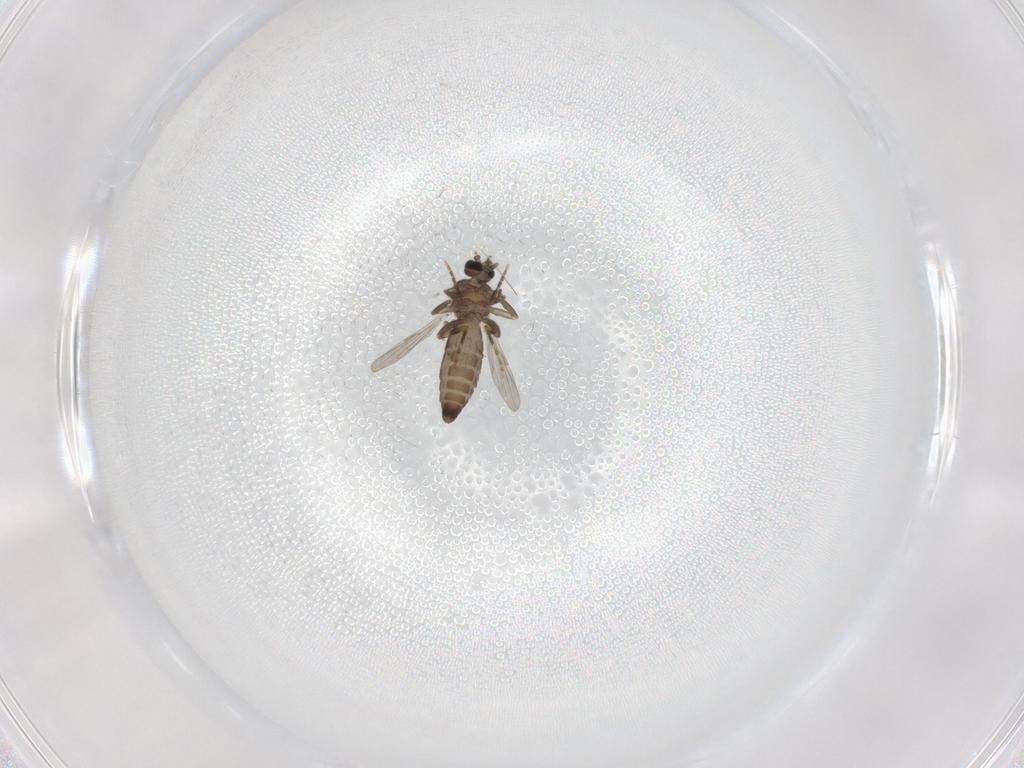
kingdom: Animalia
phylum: Arthropoda
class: Insecta
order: Diptera
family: Ceratopogonidae
